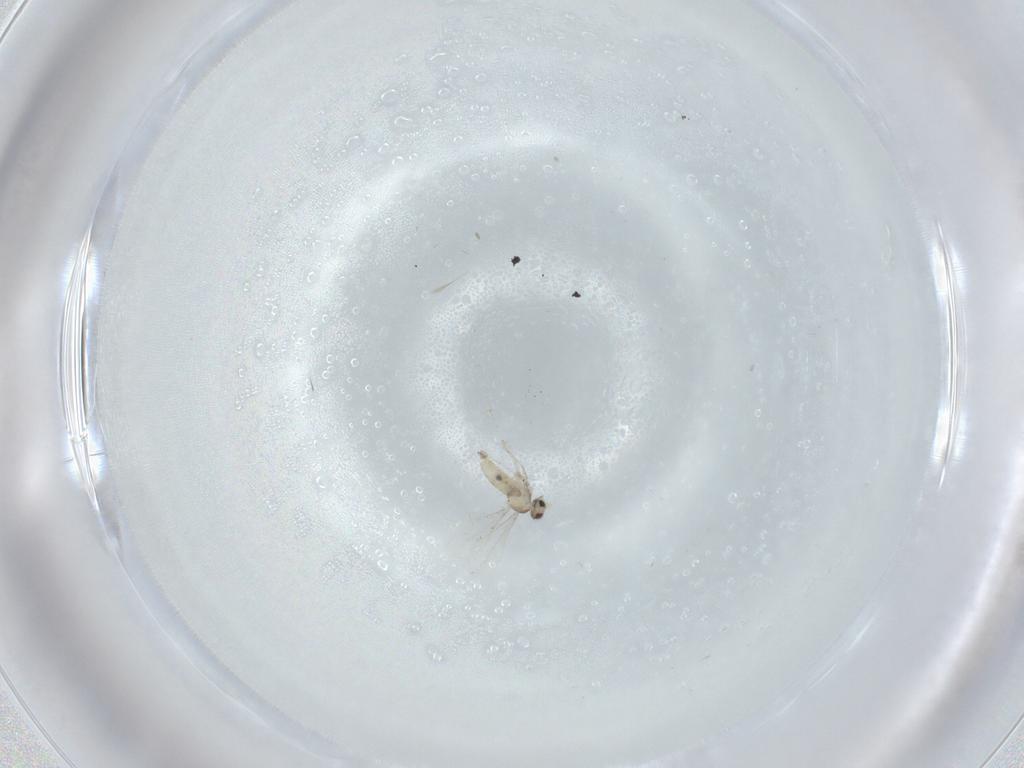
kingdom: Animalia
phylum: Arthropoda
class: Insecta
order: Diptera
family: Cecidomyiidae
